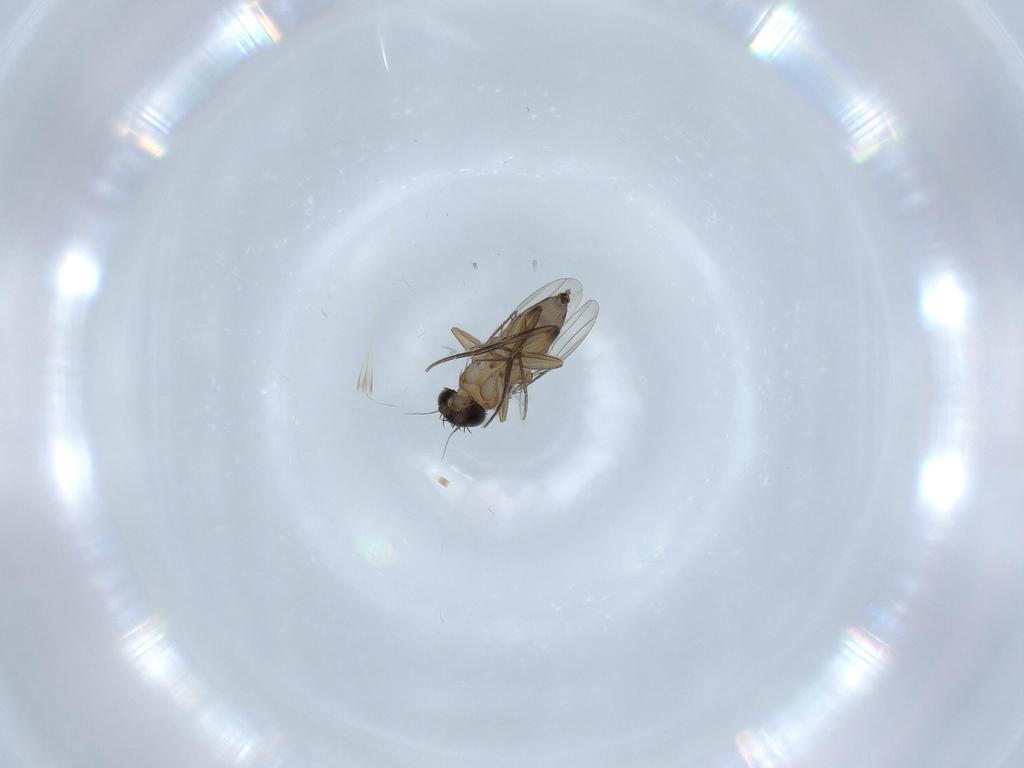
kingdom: Animalia
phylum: Arthropoda
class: Insecta
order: Diptera
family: Phoridae
